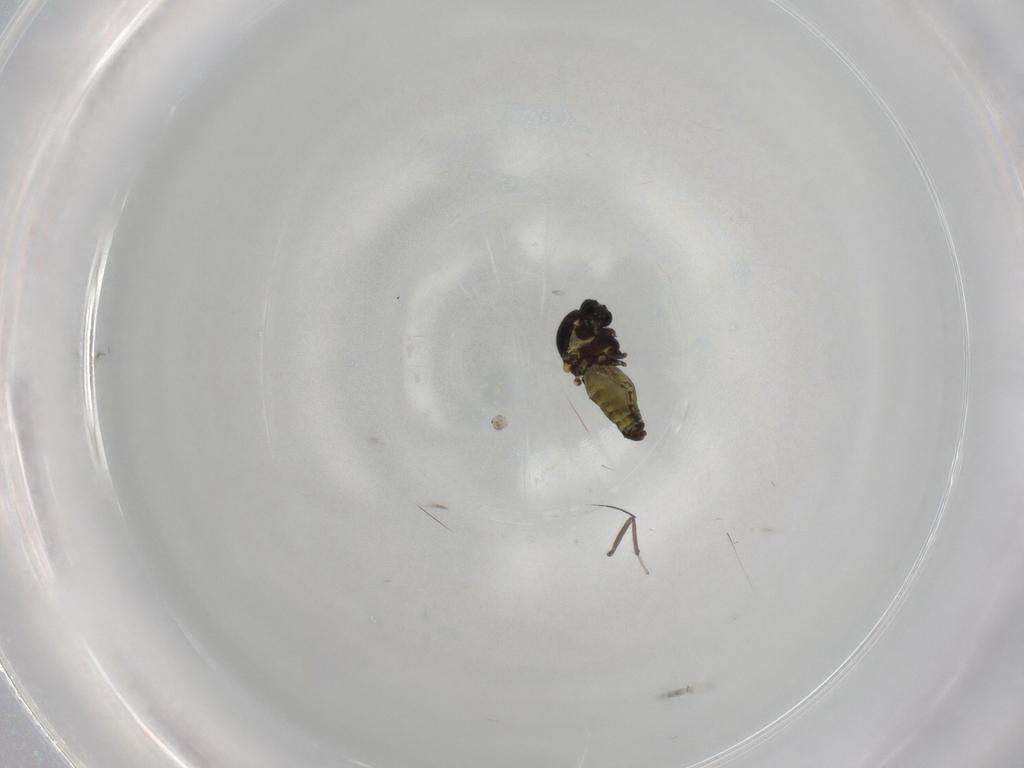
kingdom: Animalia
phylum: Arthropoda
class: Insecta
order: Diptera
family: Ceratopogonidae
